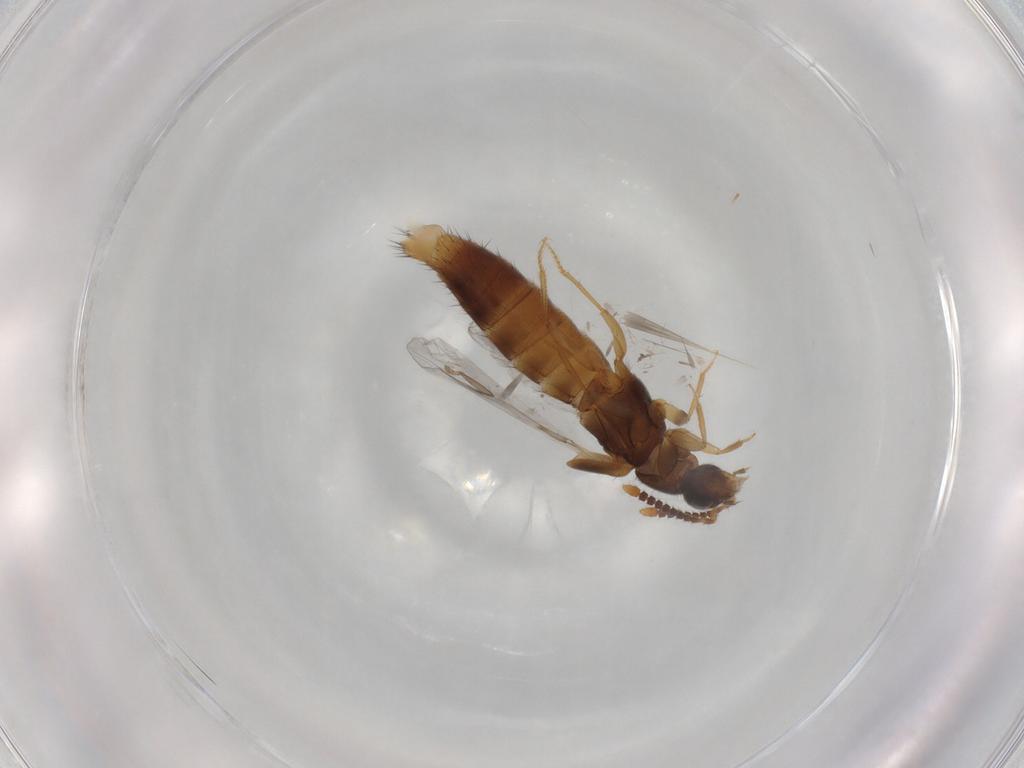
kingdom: Animalia
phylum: Arthropoda
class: Insecta
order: Coleoptera
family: Staphylinidae
